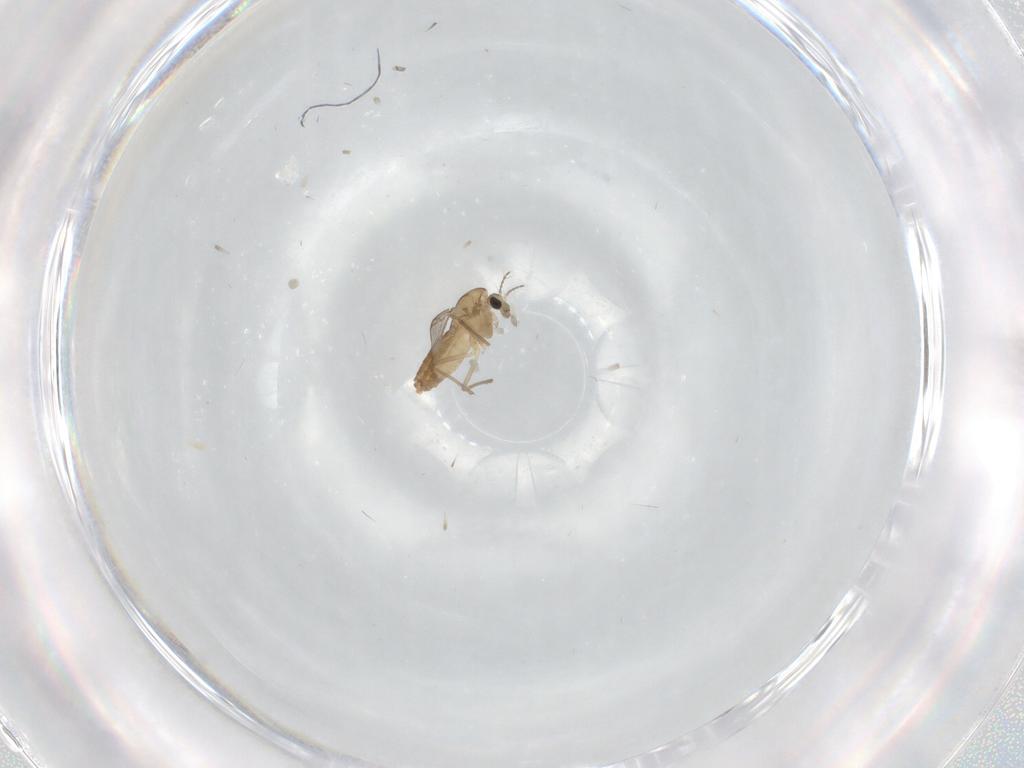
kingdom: Animalia
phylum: Arthropoda
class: Insecta
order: Diptera
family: Chironomidae
